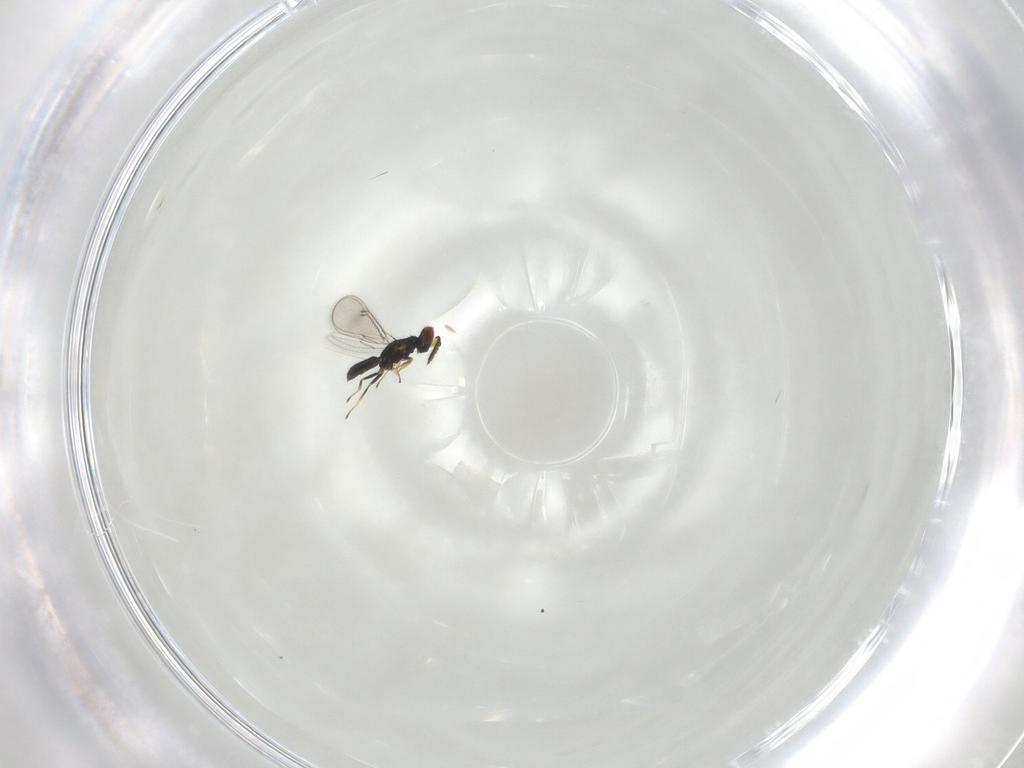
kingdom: Animalia
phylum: Arthropoda
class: Insecta
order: Hymenoptera
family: Eulophidae
